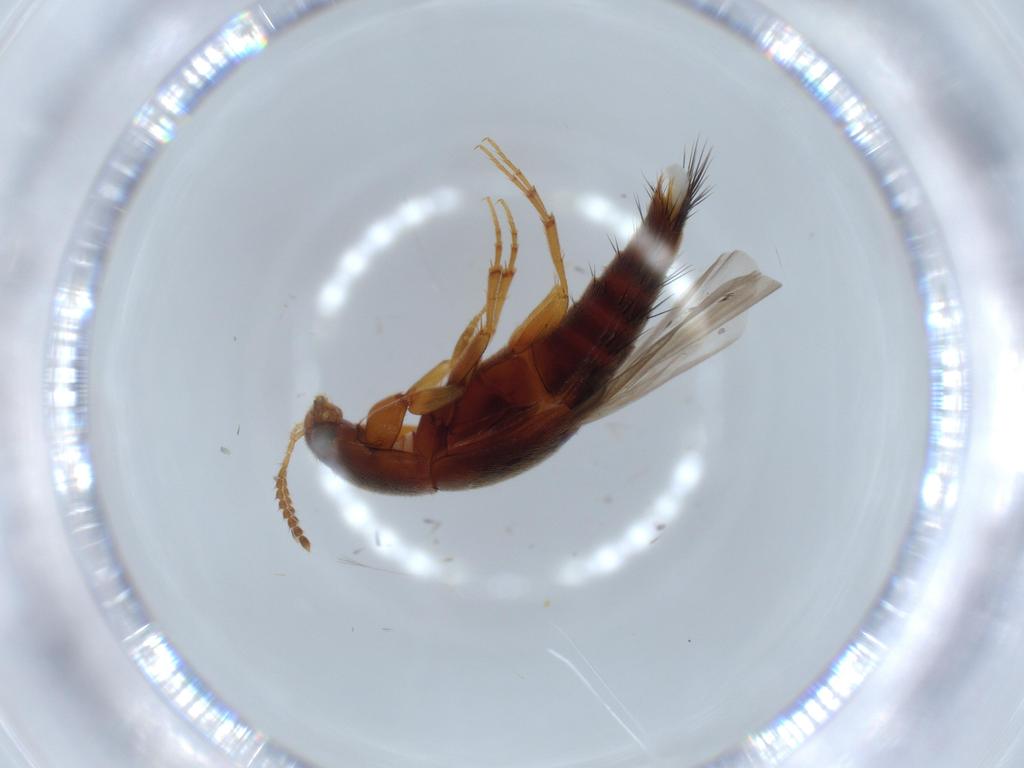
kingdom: Animalia
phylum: Arthropoda
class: Insecta
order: Coleoptera
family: Staphylinidae
